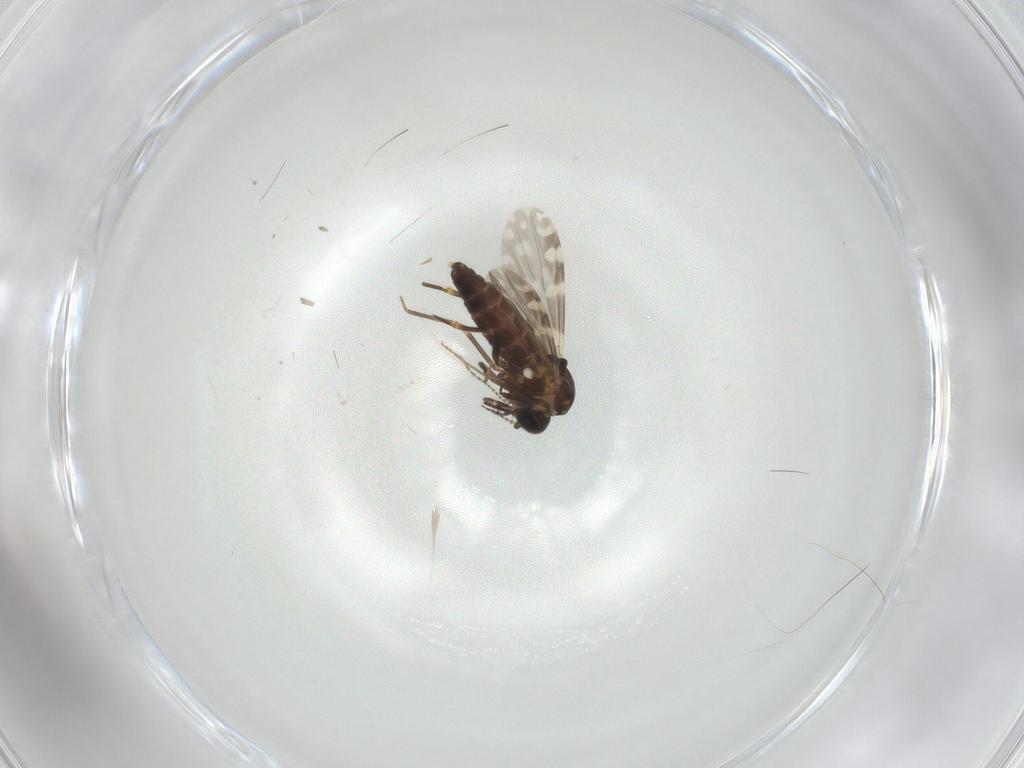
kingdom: Animalia
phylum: Arthropoda
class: Insecta
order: Diptera
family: Ceratopogonidae
